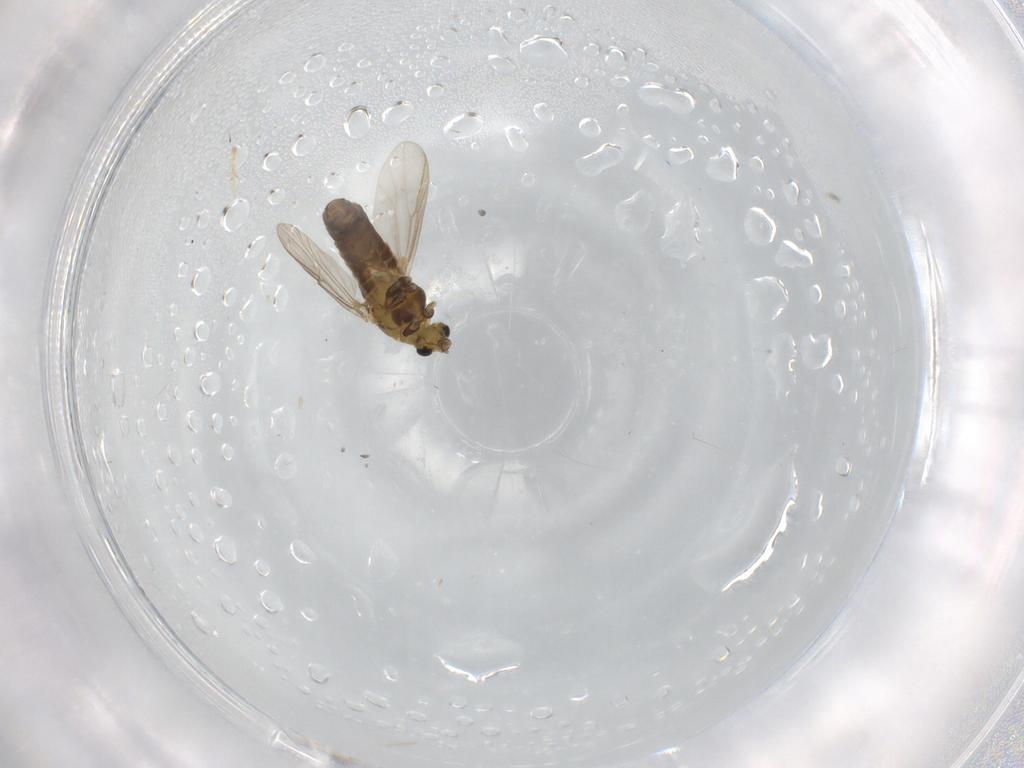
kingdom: Animalia
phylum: Arthropoda
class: Insecta
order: Diptera
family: Chironomidae
